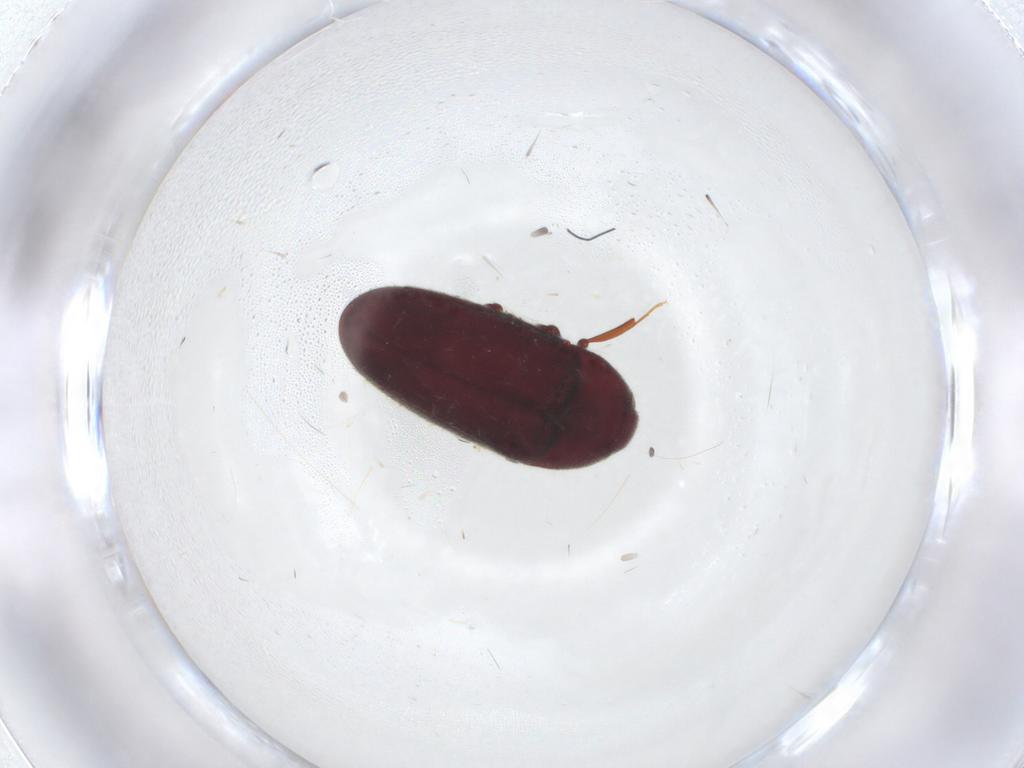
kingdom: Animalia
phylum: Arthropoda
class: Insecta
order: Coleoptera
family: Throscidae
